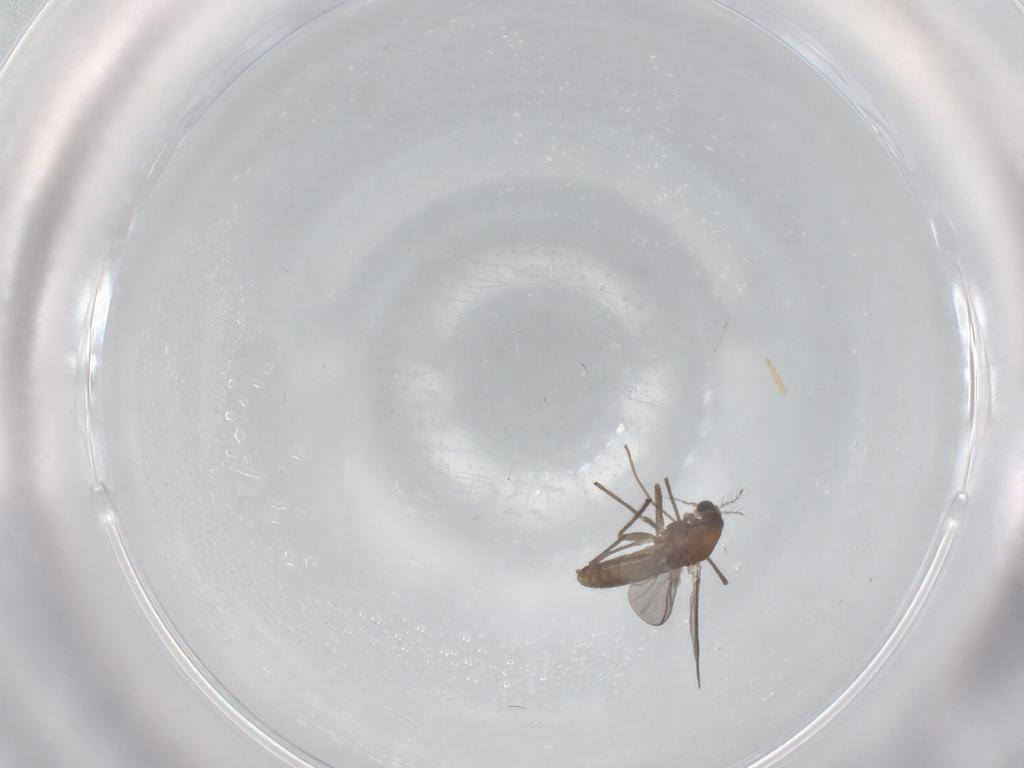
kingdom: Animalia
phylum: Arthropoda
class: Insecta
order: Diptera
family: Chironomidae
